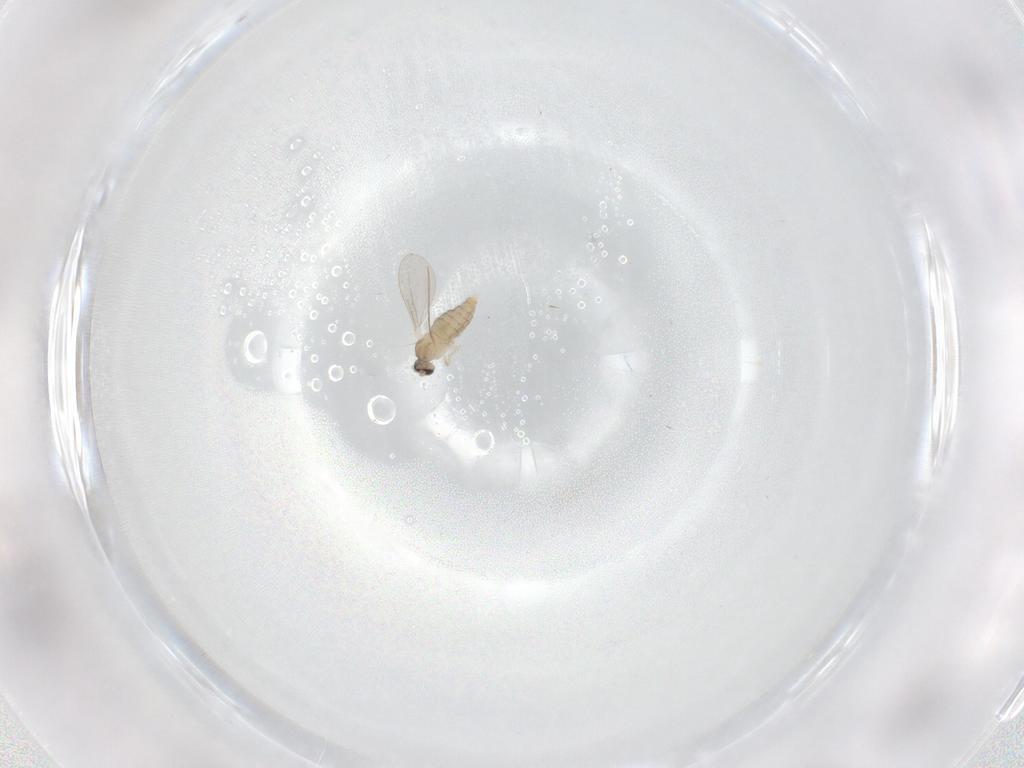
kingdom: Animalia
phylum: Arthropoda
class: Insecta
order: Diptera
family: Cecidomyiidae
